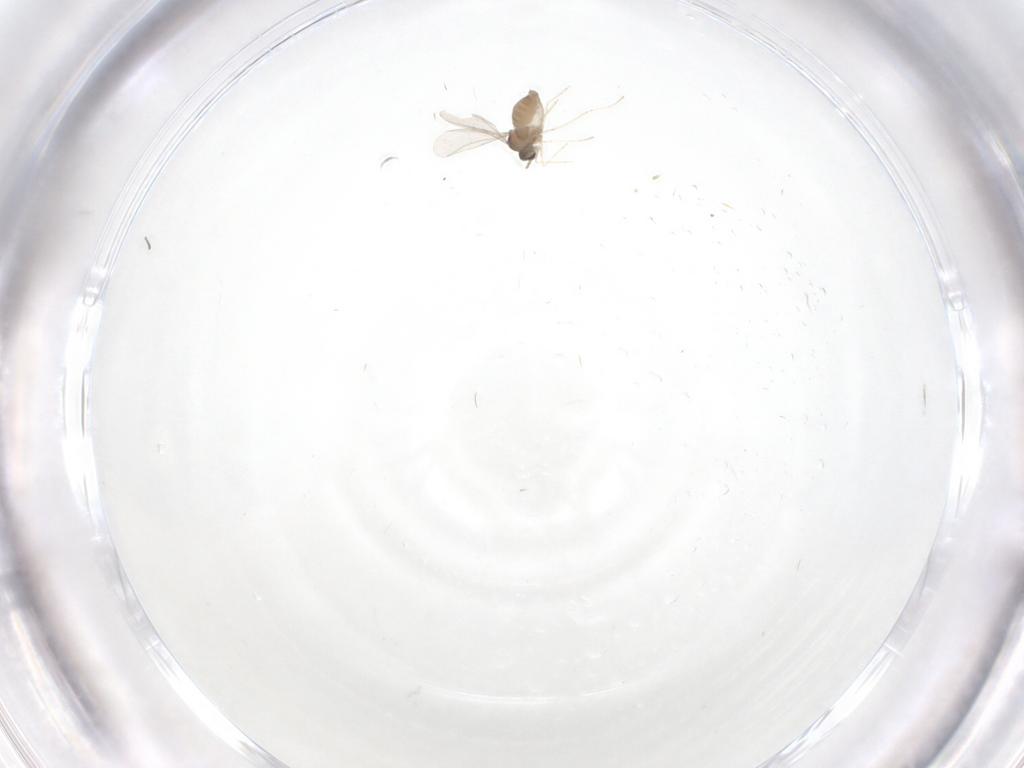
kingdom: Animalia
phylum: Arthropoda
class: Insecta
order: Diptera
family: Cecidomyiidae
